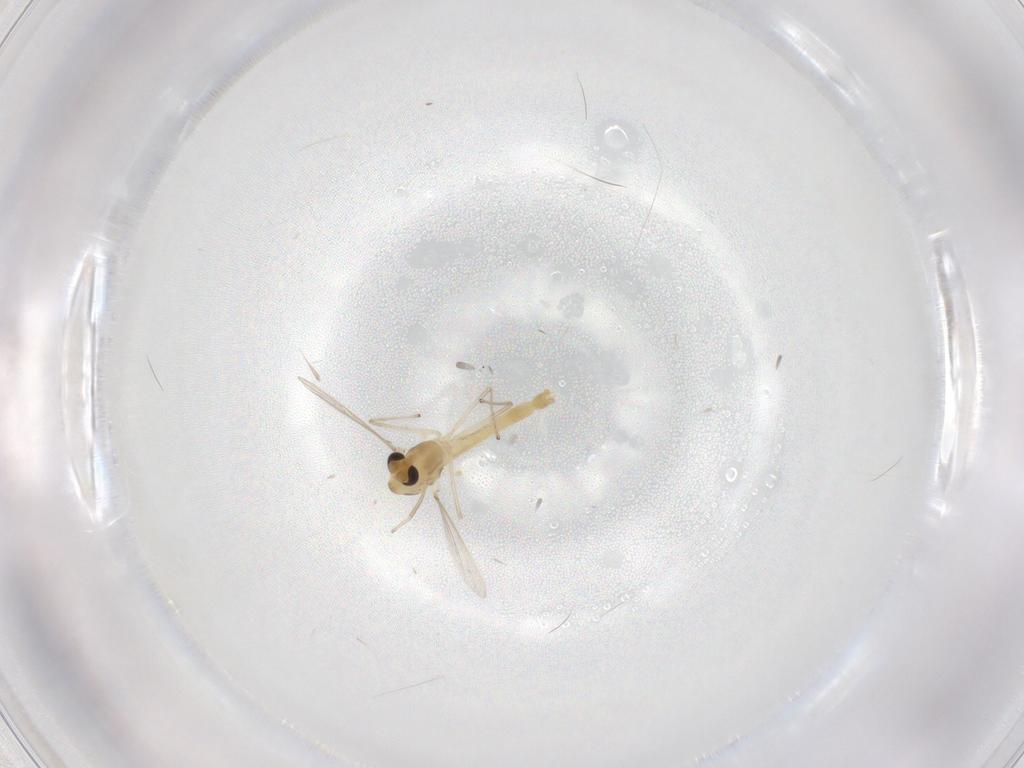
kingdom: Animalia
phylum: Arthropoda
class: Insecta
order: Diptera
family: Chironomidae
